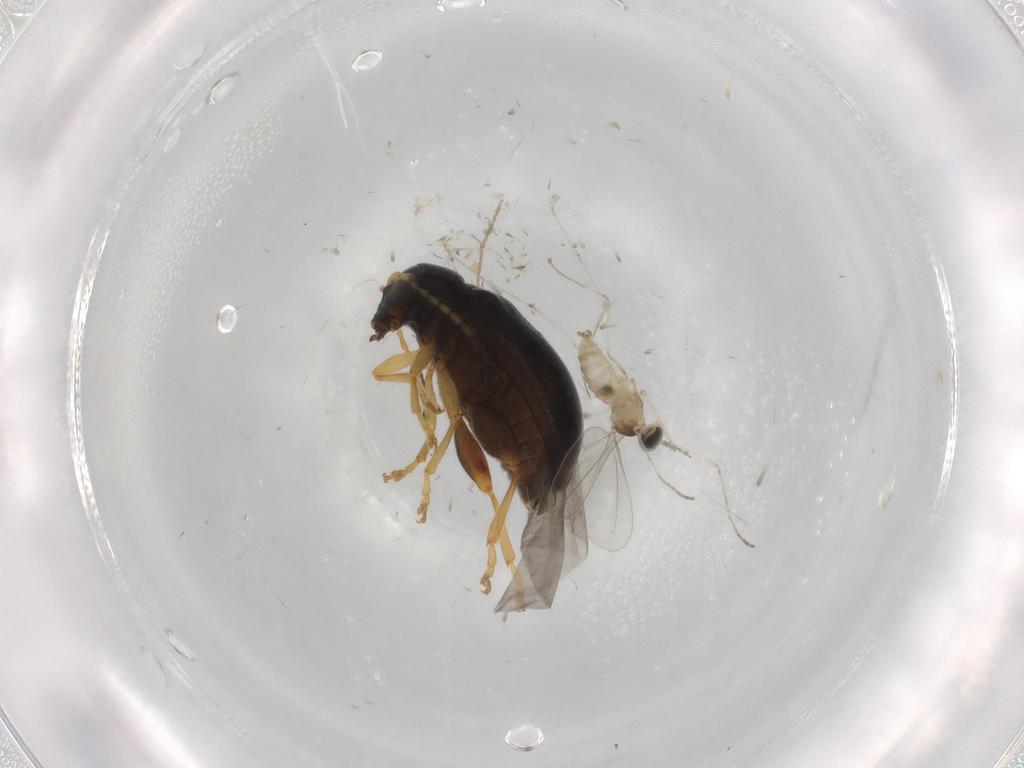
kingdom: Animalia
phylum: Arthropoda
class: Insecta
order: Coleoptera
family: Chrysomelidae
